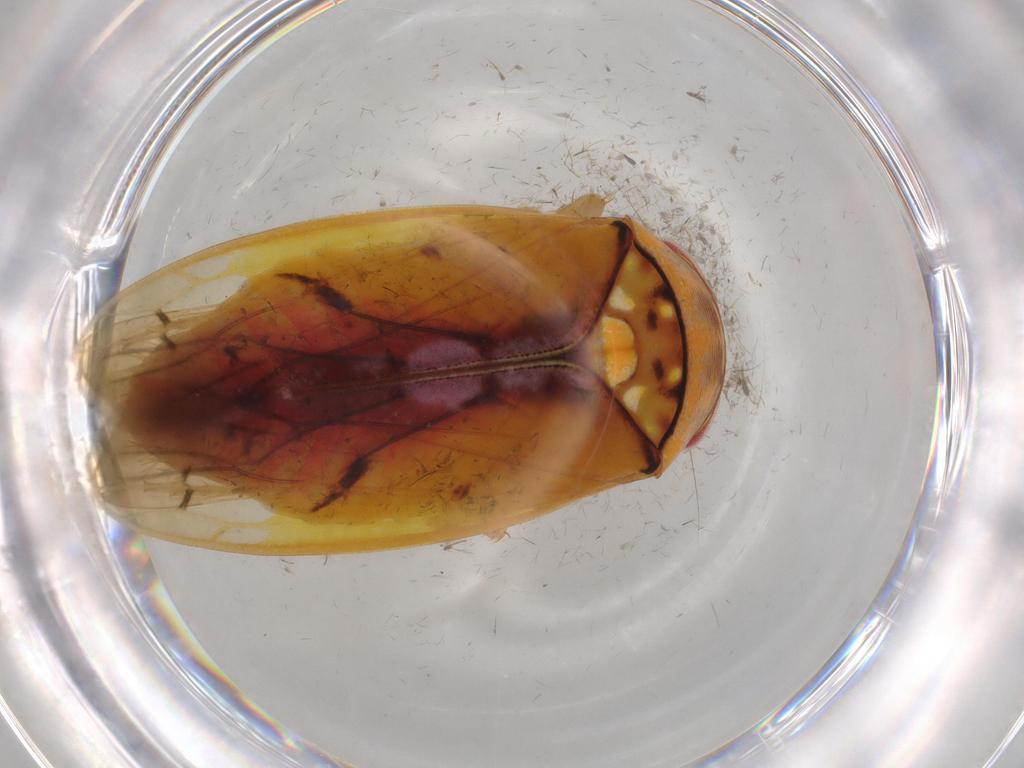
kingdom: Animalia
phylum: Arthropoda
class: Insecta
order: Hemiptera
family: Cicadellidae
